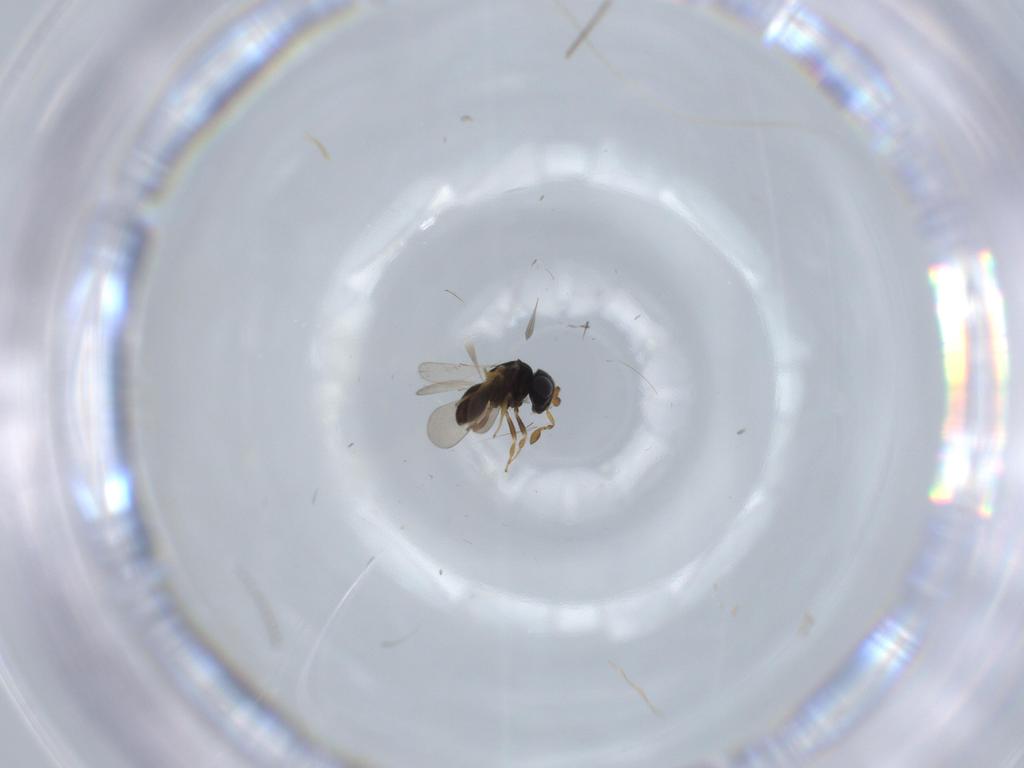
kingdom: Animalia
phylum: Arthropoda
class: Insecta
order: Hymenoptera
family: Scelionidae
